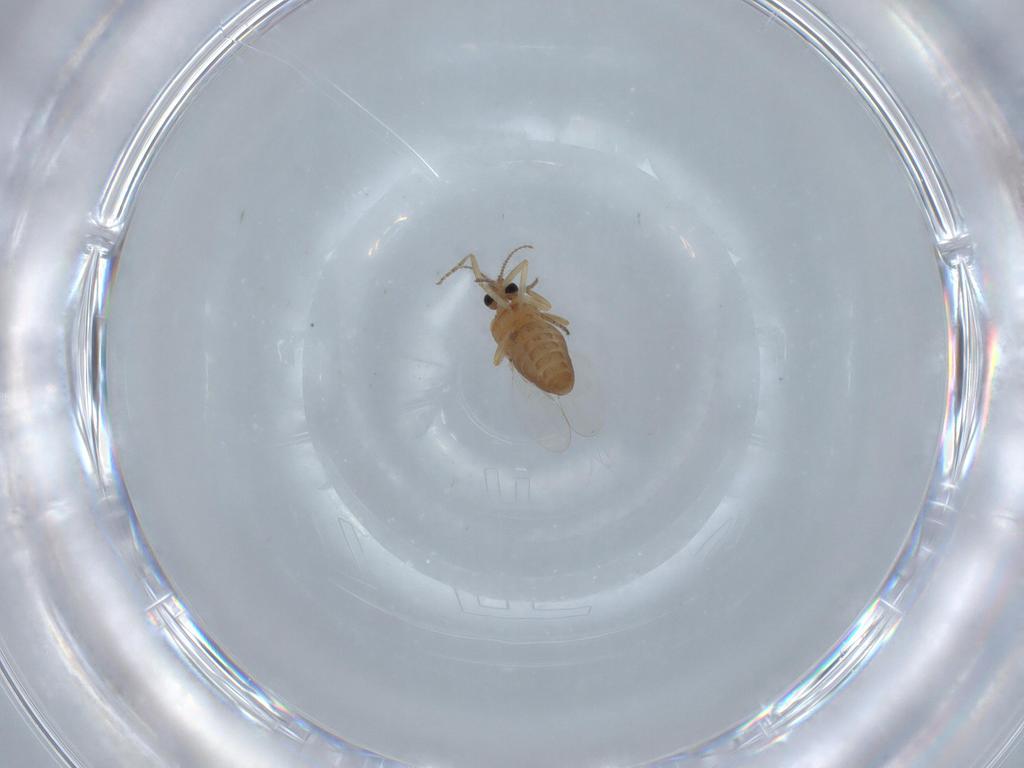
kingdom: Animalia
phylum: Arthropoda
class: Insecta
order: Diptera
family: Ceratopogonidae
